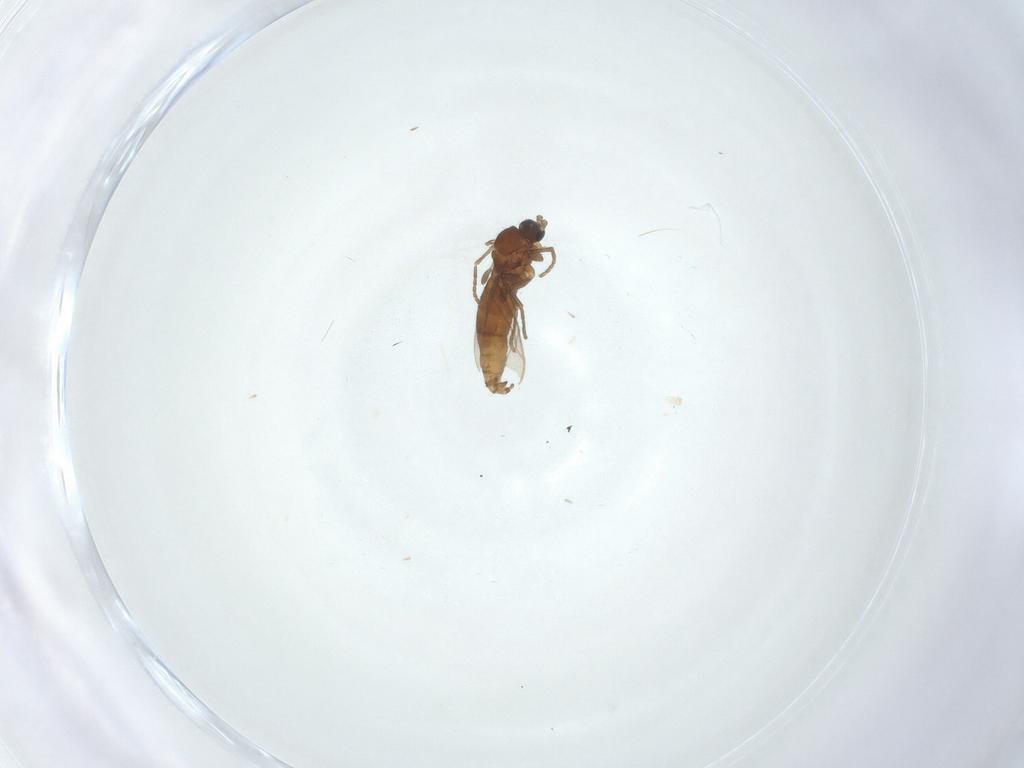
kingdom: Animalia
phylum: Arthropoda
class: Insecta
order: Diptera
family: Sciaridae
